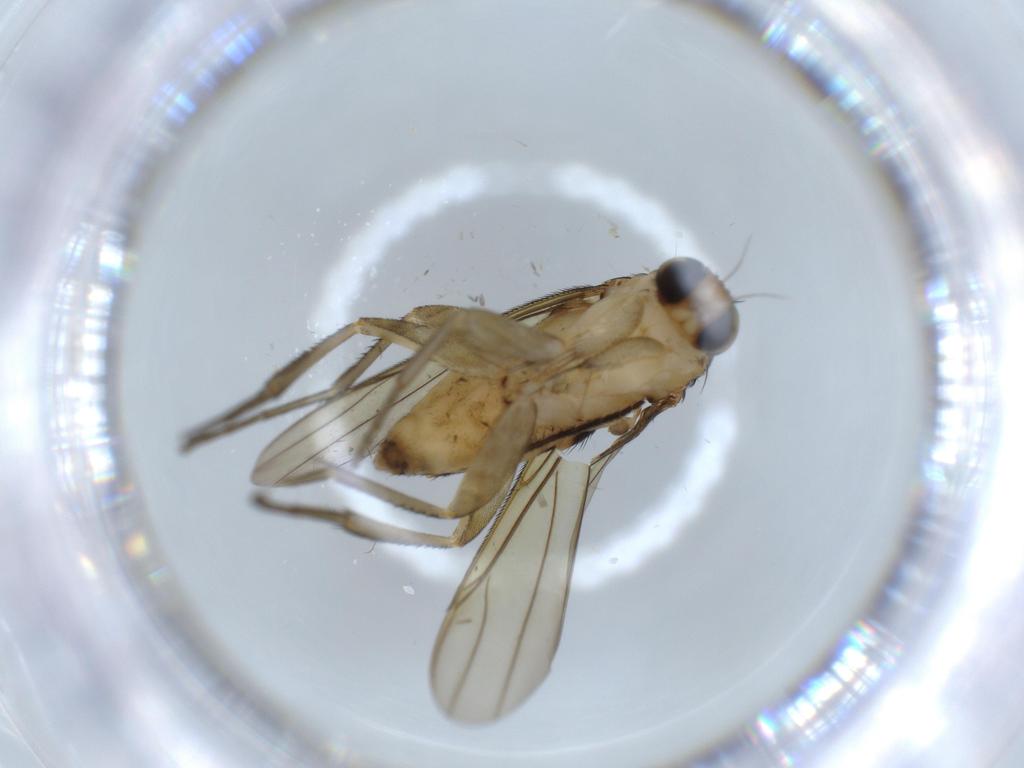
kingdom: Animalia
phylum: Arthropoda
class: Insecta
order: Diptera
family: Phoridae
